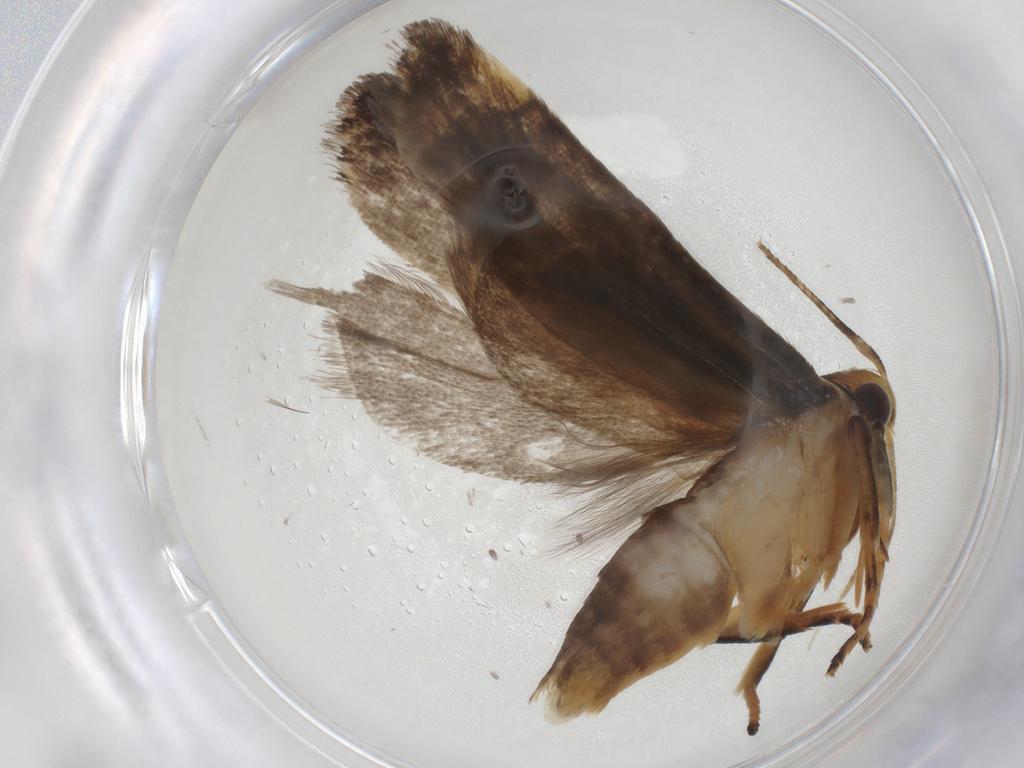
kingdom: Animalia
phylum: Arthropoda
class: Insecta
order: Lepidoptera
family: Gelechiidae
